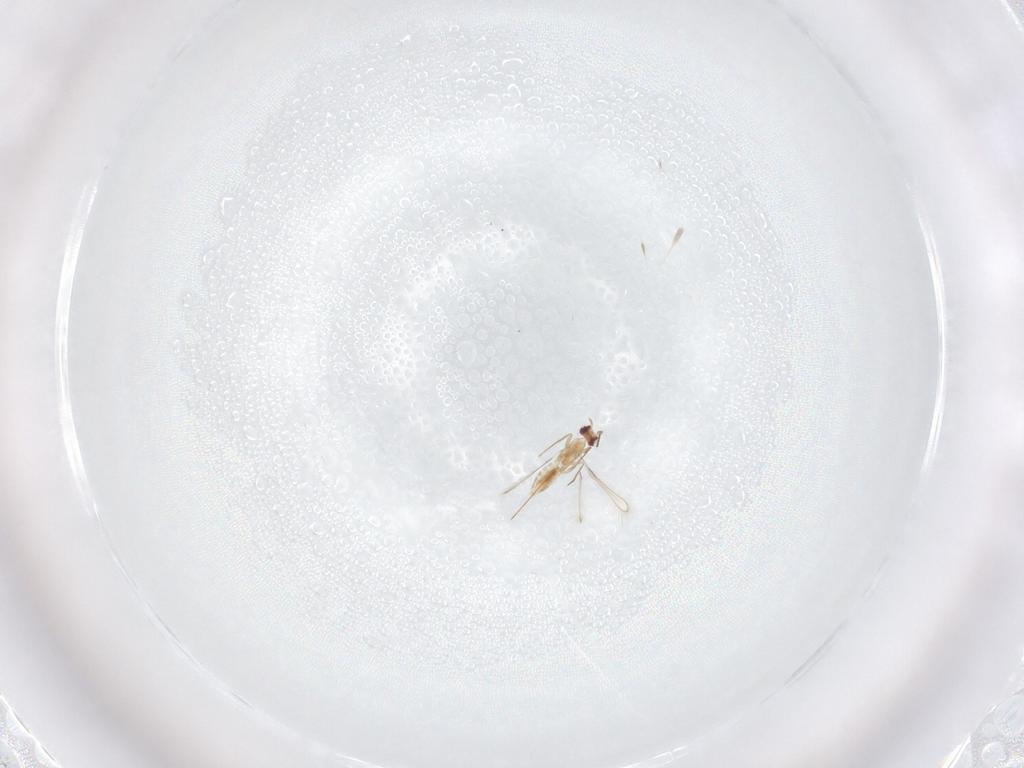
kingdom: Animalia
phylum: Arthropoda
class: Insecta
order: Hymenoptera
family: Mymaridae
